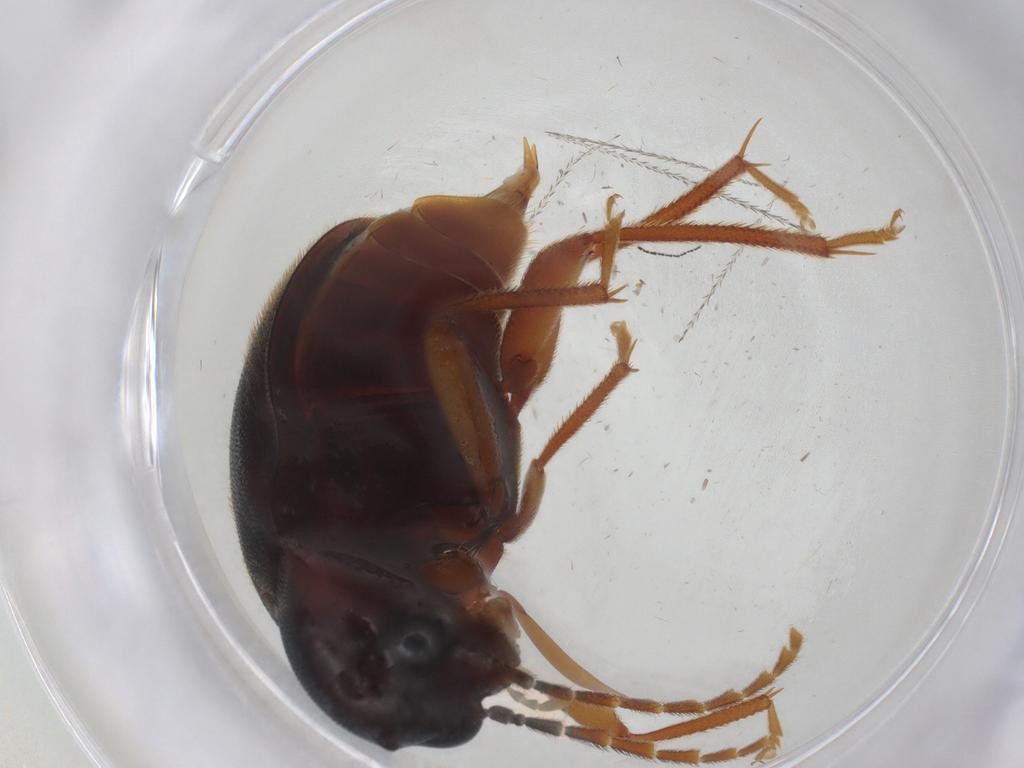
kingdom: Animalia
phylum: Arthropoda
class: Insecta
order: Coleoptera
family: Ptilodactylidae
